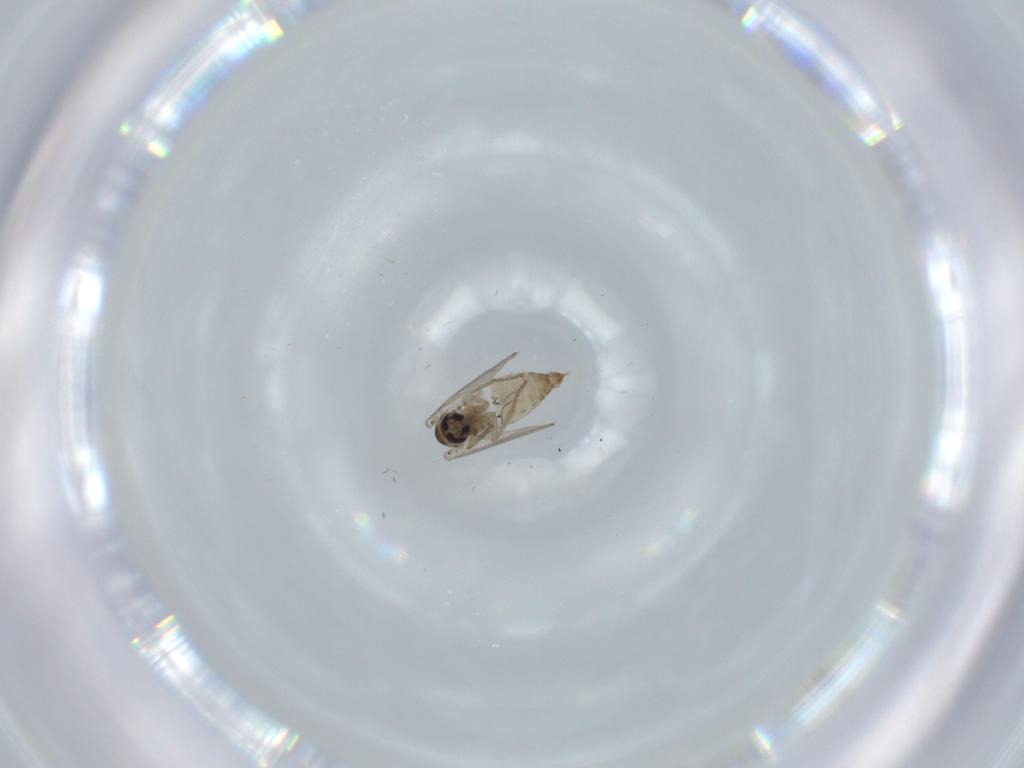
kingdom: Animalia
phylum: Arthropoda
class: Insecta
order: Diptera
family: Psychodidae
